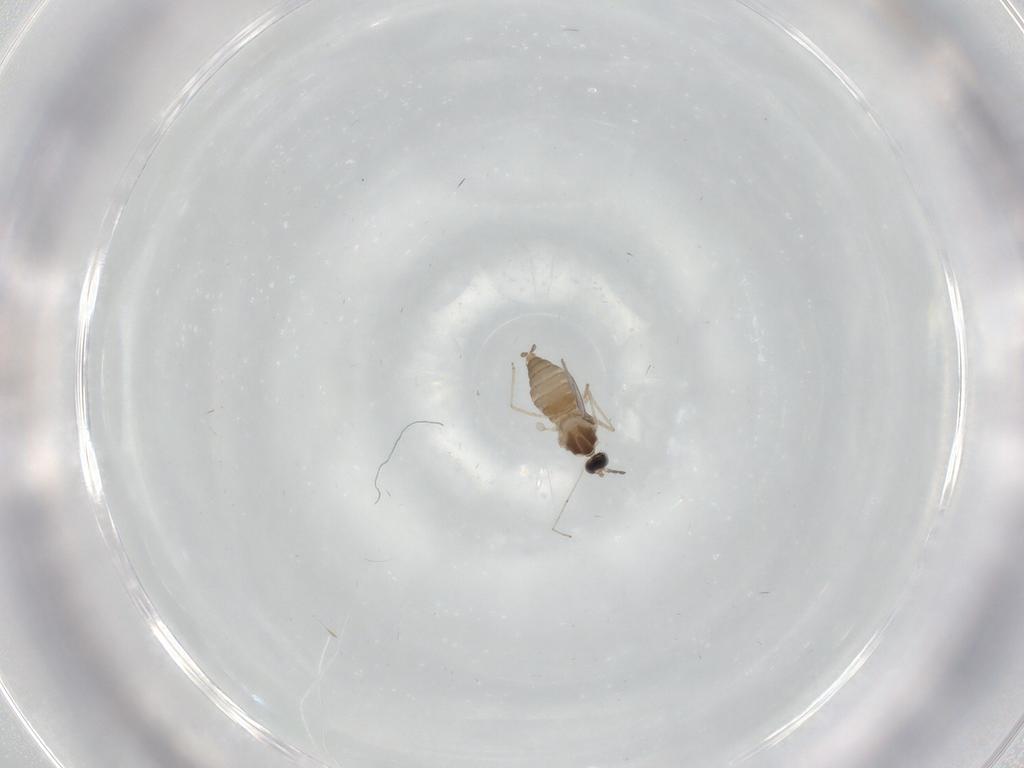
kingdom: Animalia
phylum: Arthropoda
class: Insecta
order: Diptera
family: Cecidomyiidae
